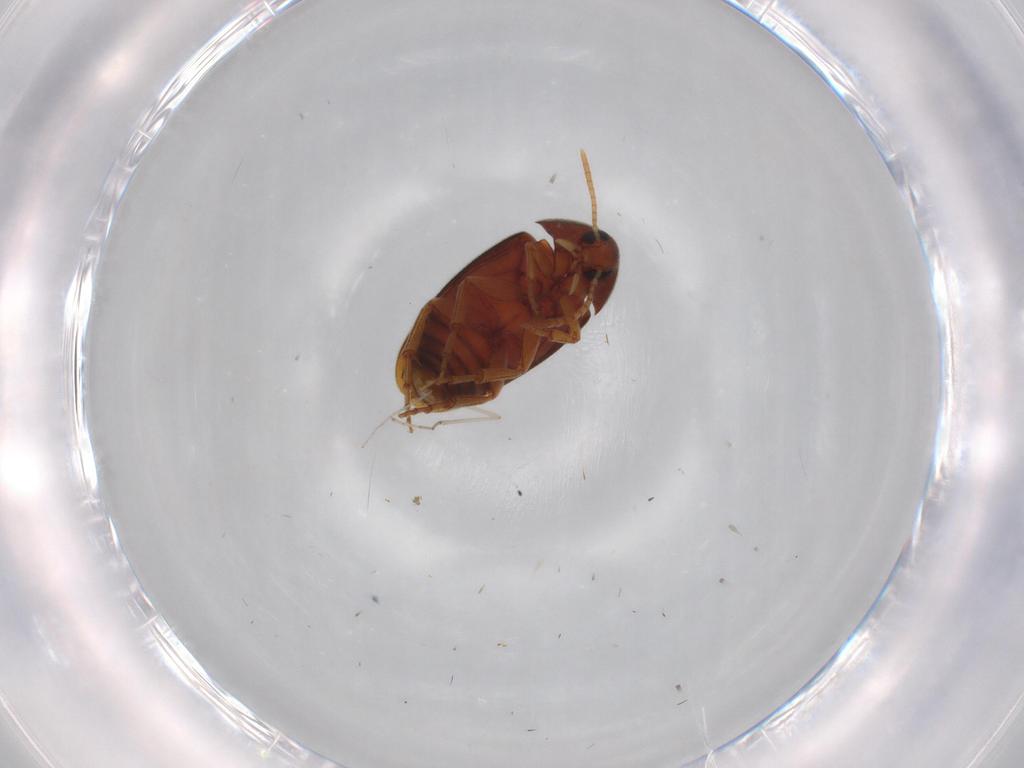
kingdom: Animalia
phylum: Arthropoda
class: Insecta
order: Coleoptera
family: Scraptiidae
